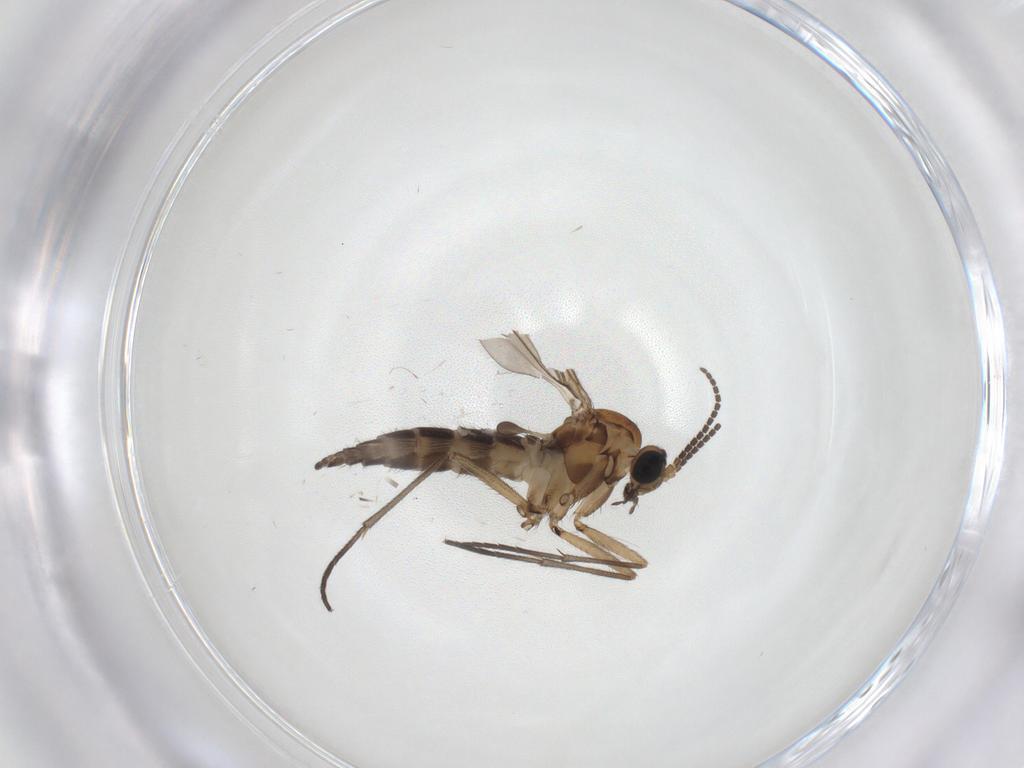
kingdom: Animalia
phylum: Arthropoda
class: Insecta
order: Diptera
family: Sciaridae
